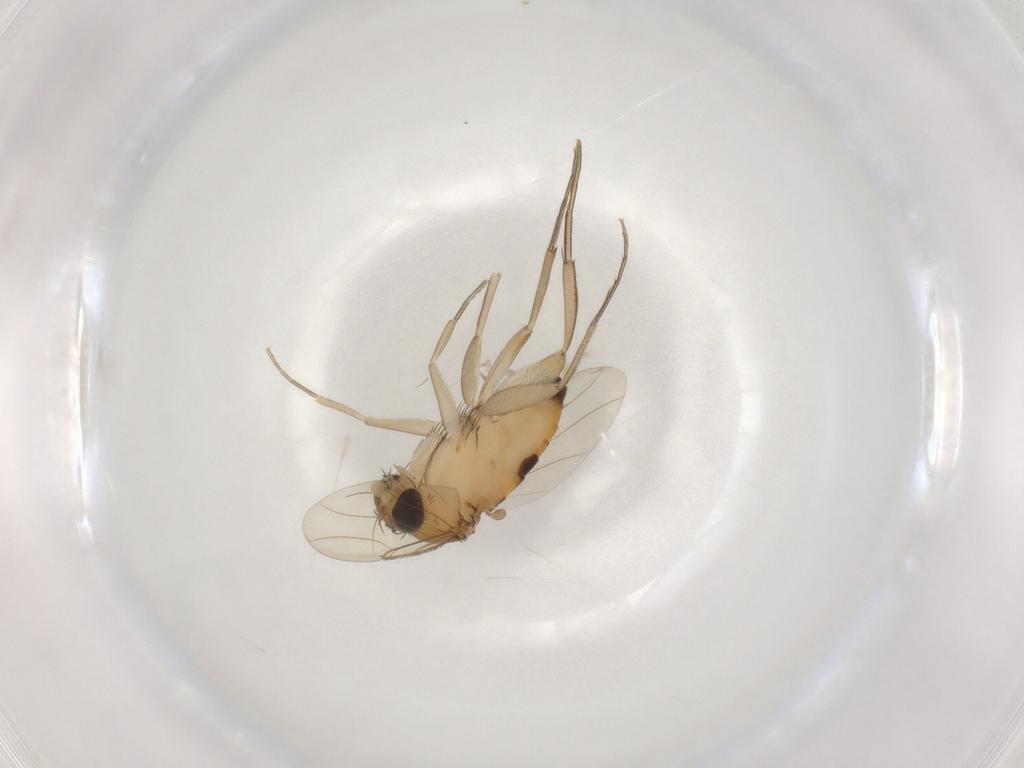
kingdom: Animalia
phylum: Arthropoda
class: Insecta
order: Diptera
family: Phoridae
